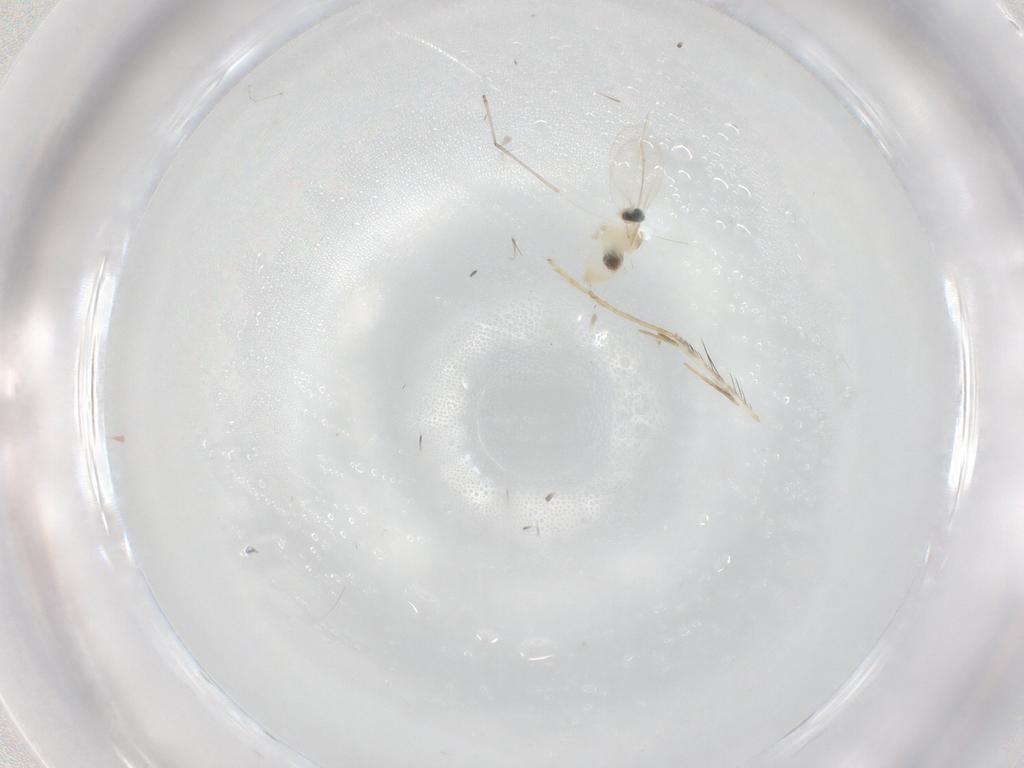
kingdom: Animalia
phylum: Arthropoda
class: Insecta
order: Diptera
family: Cecidomyiidae
